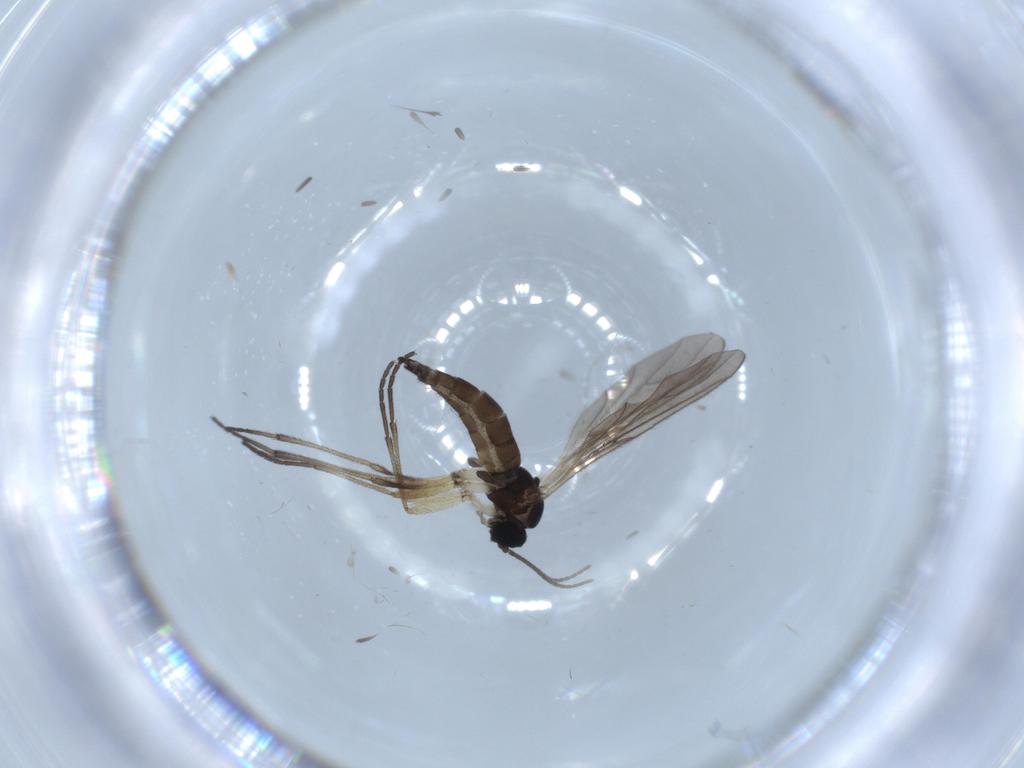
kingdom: Animalia
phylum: Arthropoda
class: Insecta
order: Diptera
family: Sciaridae
